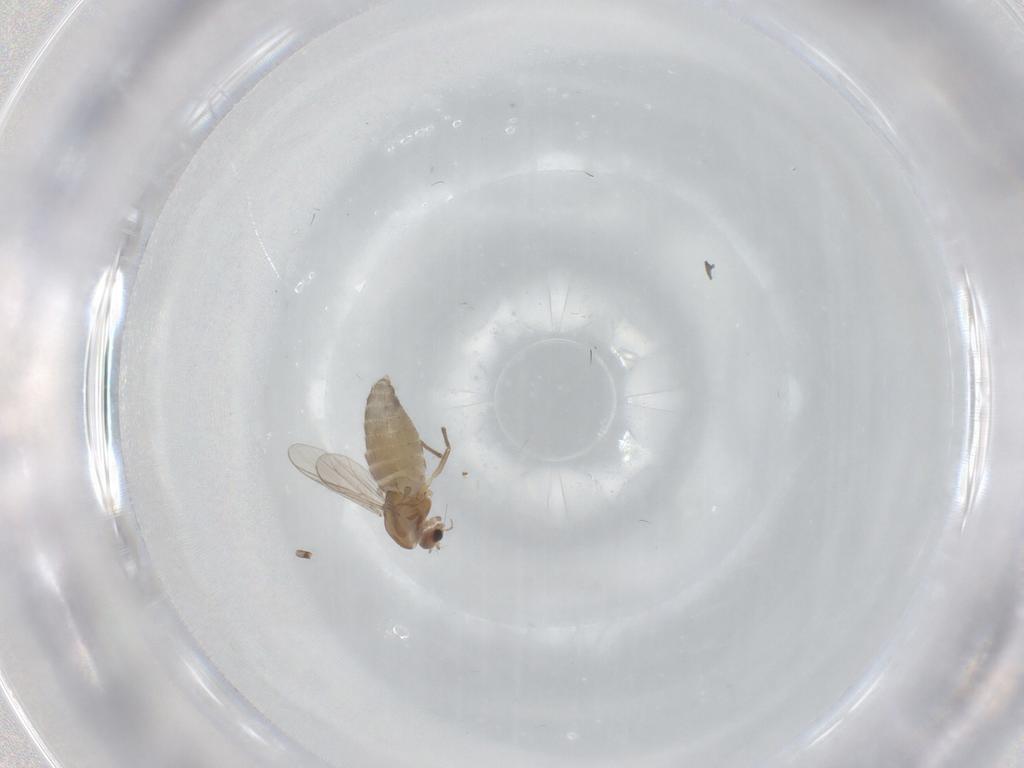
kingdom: Animalia
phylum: Arthropoda
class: Insecta
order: Diptera
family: Chironomidae
